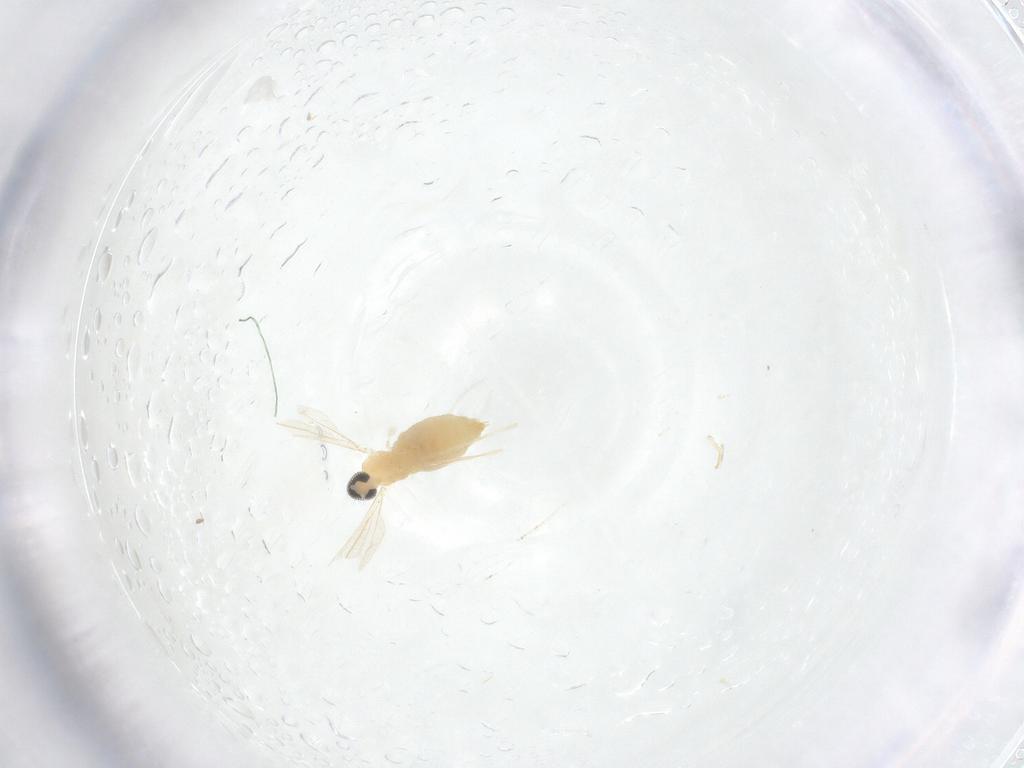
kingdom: Animalia
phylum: Arthropoda
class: Insecta
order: Diptera
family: Cecidomyiidae
